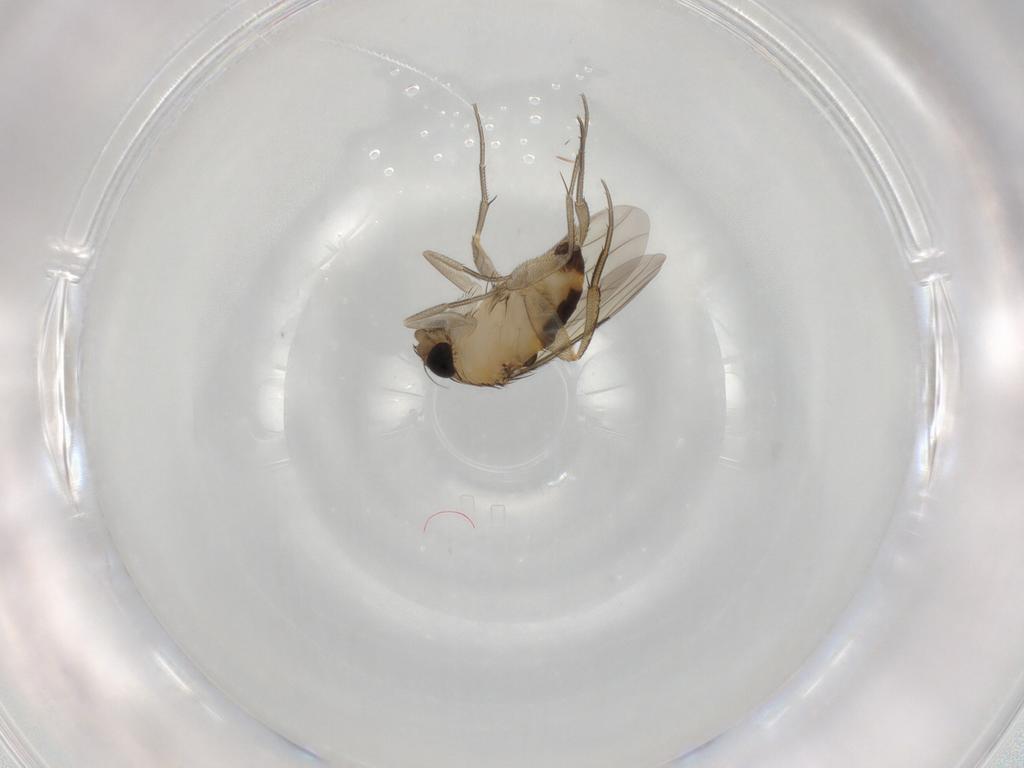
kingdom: Animalia
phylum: Arthropoda
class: Insecta
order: Diptera
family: Phoridae
